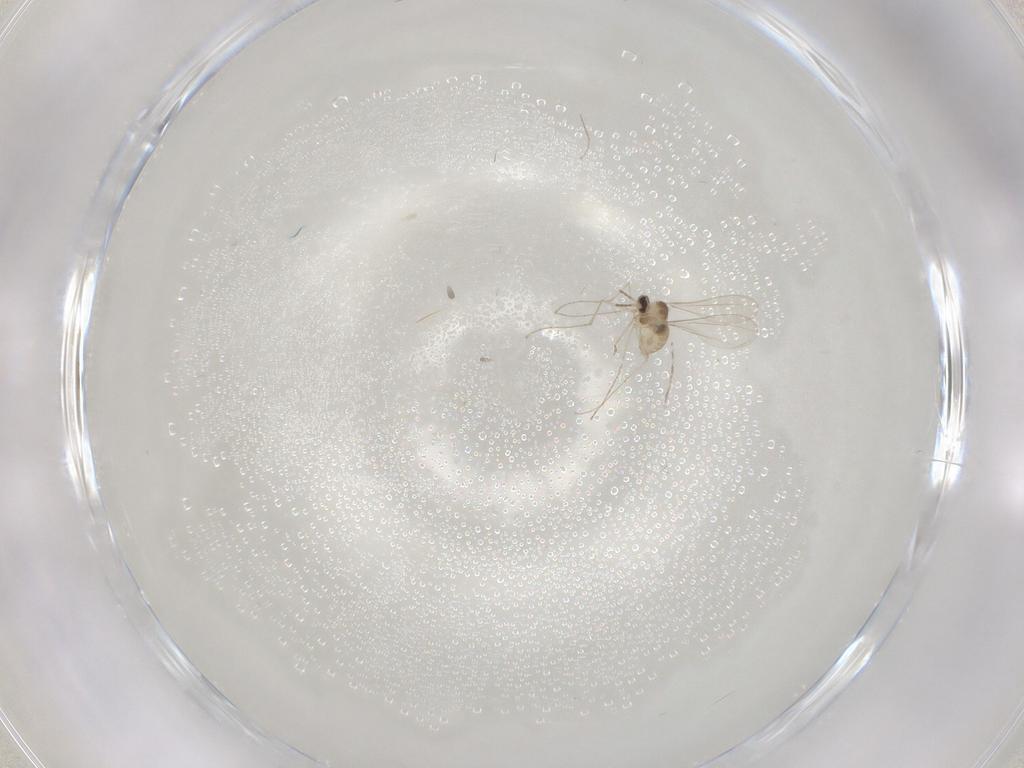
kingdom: Animalia
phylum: Arthropoda
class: Insecta
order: Diptera
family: Cecidomyiidae
